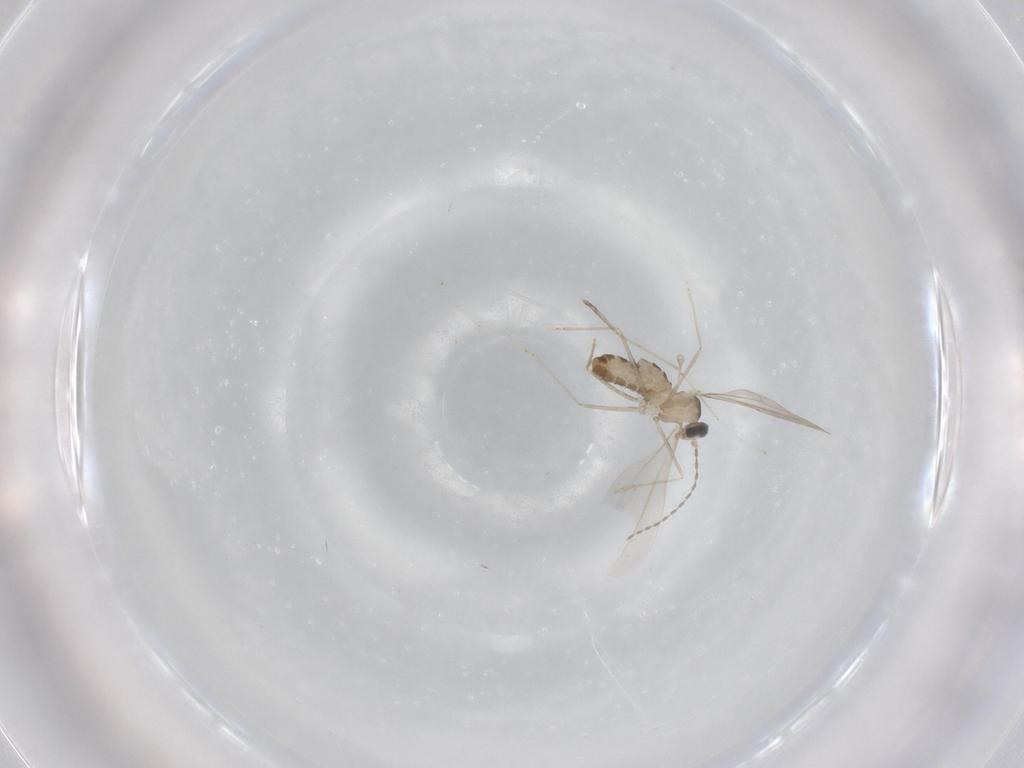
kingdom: Animalia
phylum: Arthropoda
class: Insecta
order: Diptera
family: Cecidomyiidae
